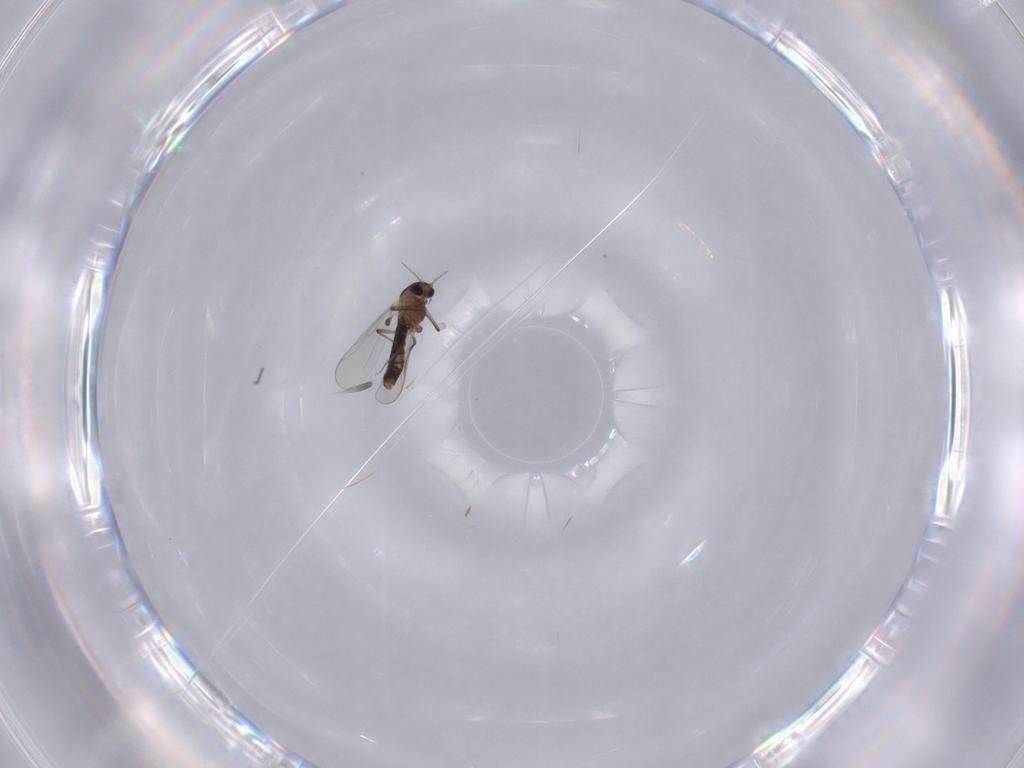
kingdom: Animalia
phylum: Arthropoda
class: Insecta
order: Diptera
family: Chironomidae
